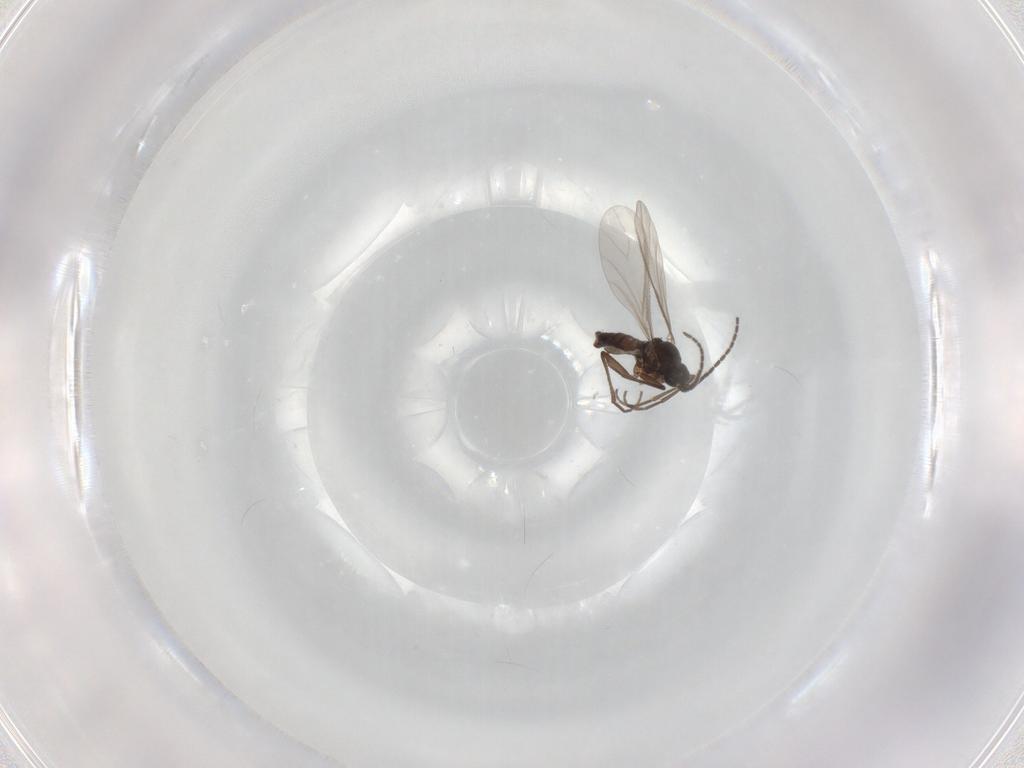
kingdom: Animalia
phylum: Arthropoda
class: Insecta
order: Diptera
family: Sciaridae
